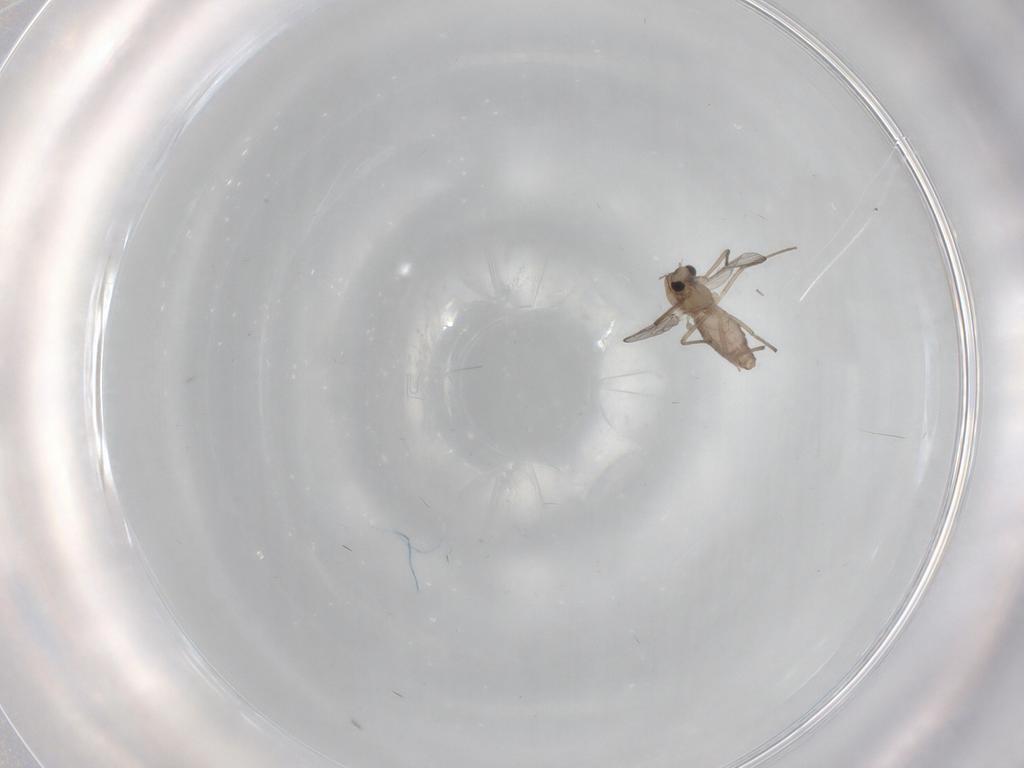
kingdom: Animalia
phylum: Arthropoda
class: Insecta
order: Diptera
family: Chironomidae
